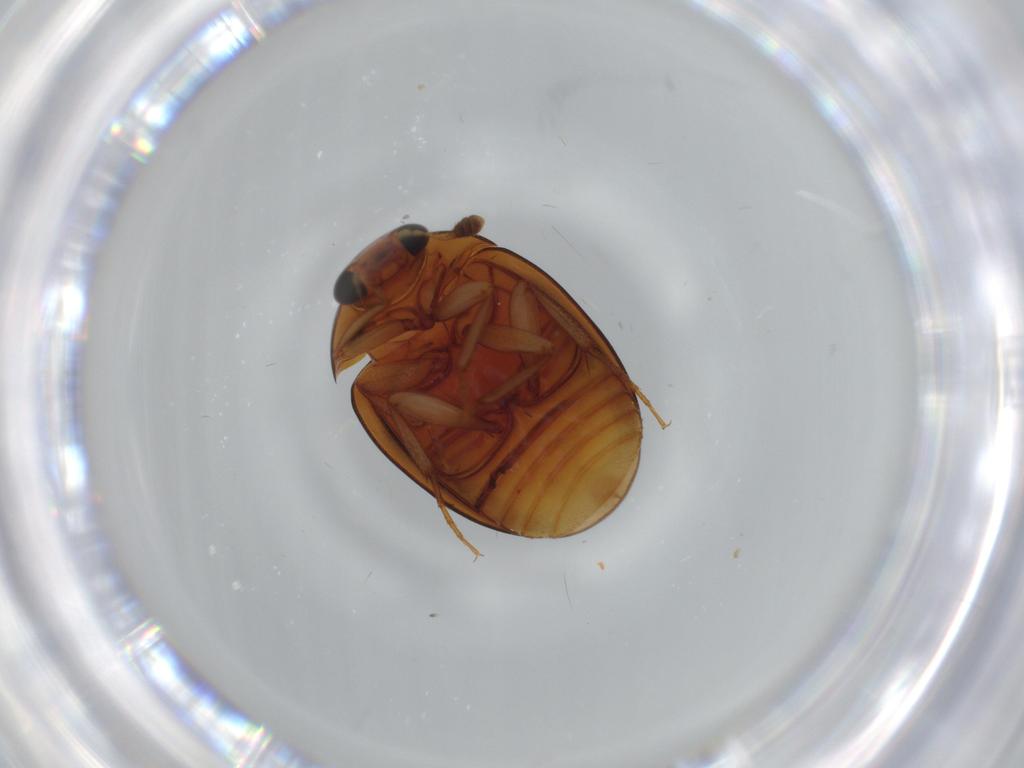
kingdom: Animalia
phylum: Arthropoda
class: Insecta
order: Coleoptera
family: Nitidulidae
